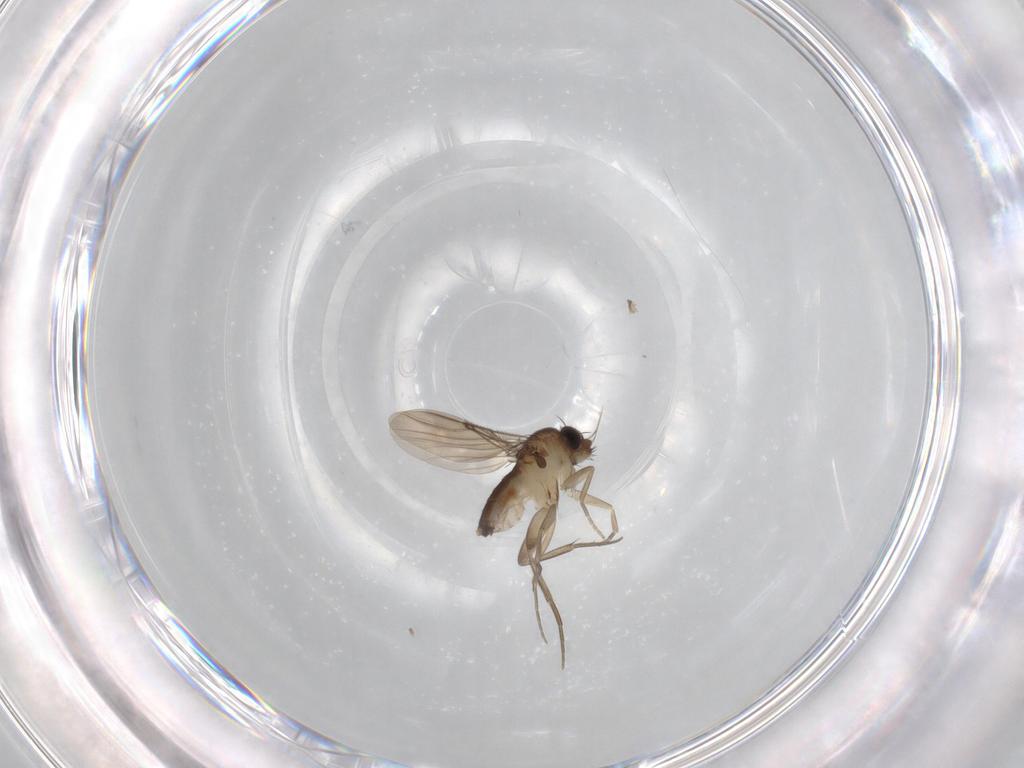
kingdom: Animalia
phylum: Arthropoda
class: Insecta
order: Diptera
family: Phoridae
